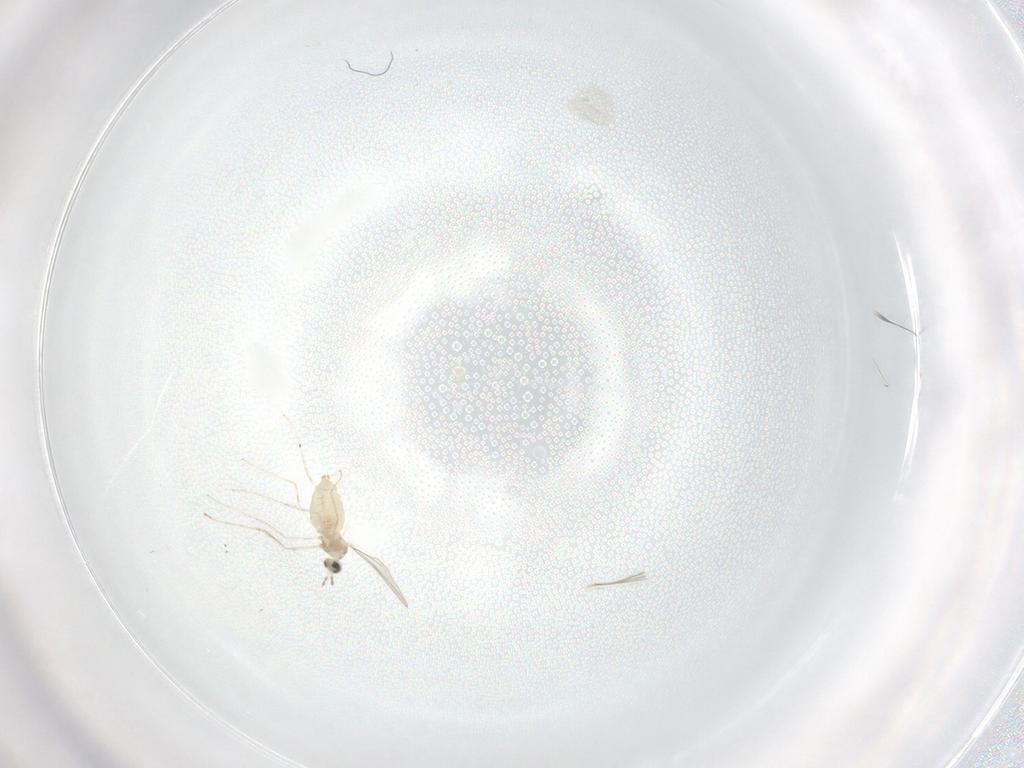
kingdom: Animalia
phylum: Arthropoda
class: Insecta
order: Diptera
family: Cecidomyiidae
